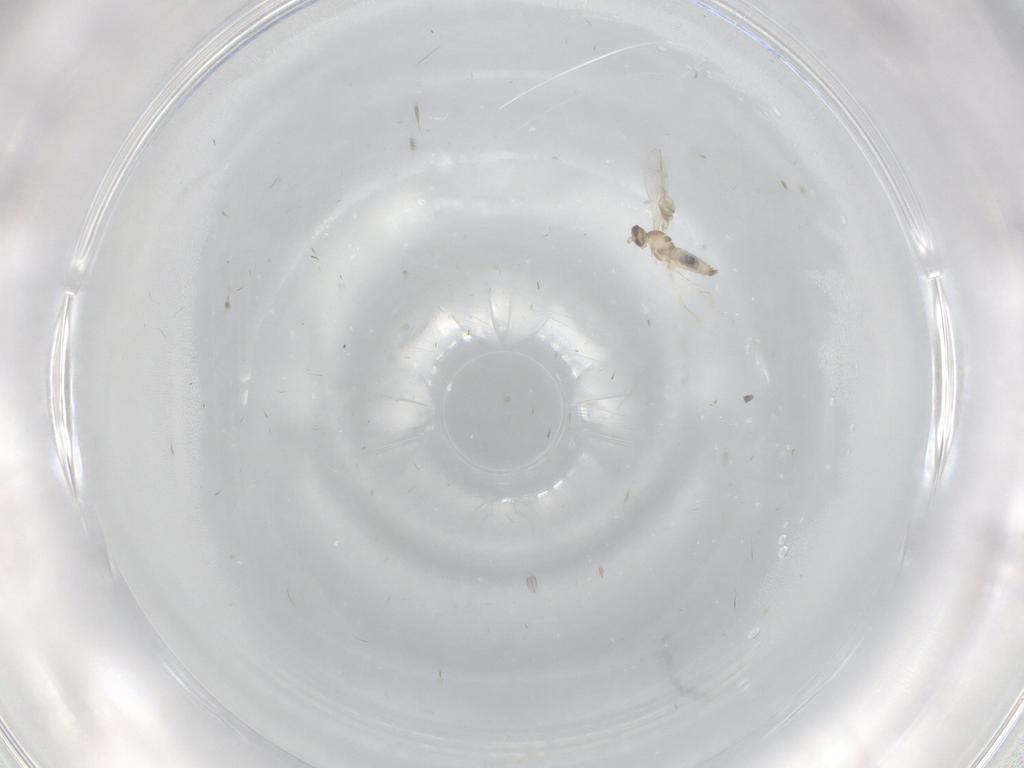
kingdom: Animalia
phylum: Arthropoda
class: Insecta
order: Diptera
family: Cecidomyiidae
